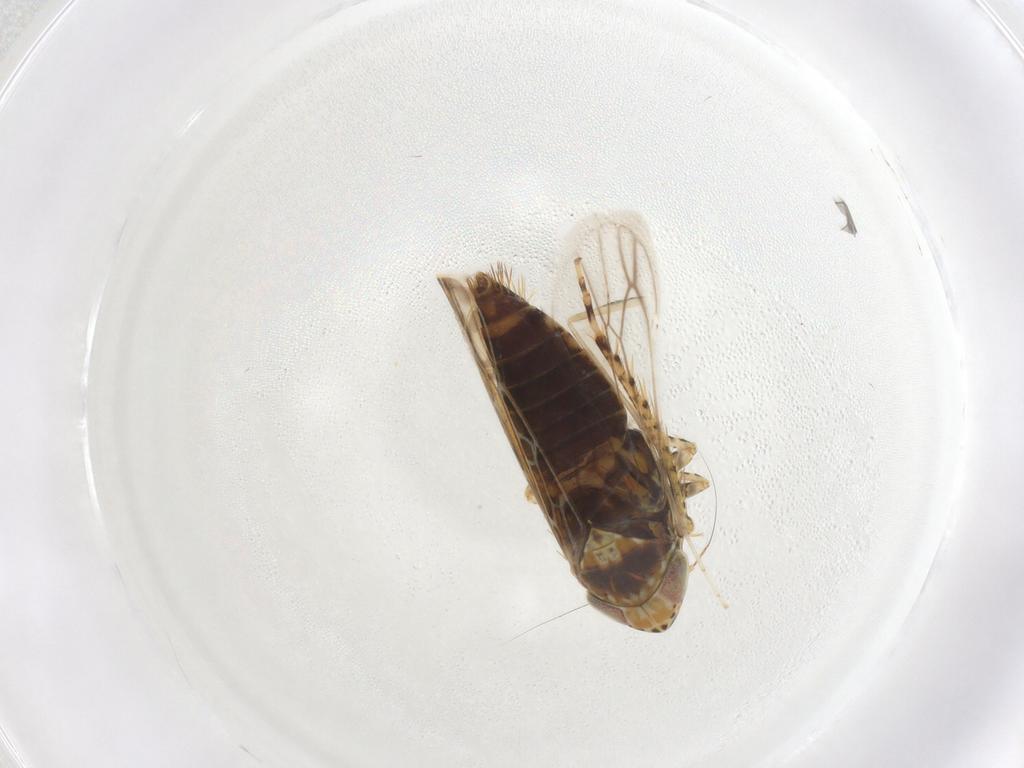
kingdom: Animalia
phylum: Arthropoda
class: Insecta
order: Hemiptera
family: Cicadellidae
